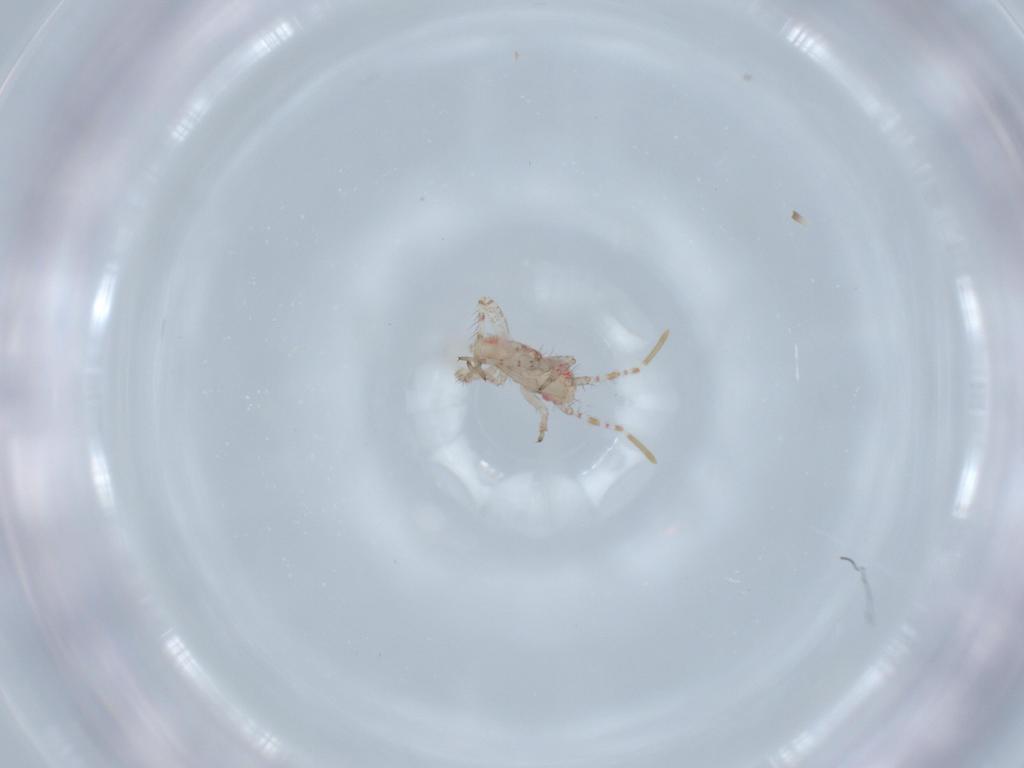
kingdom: Animalia
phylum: Arthropoda
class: Insecta
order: Hemiptera
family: Miridae
